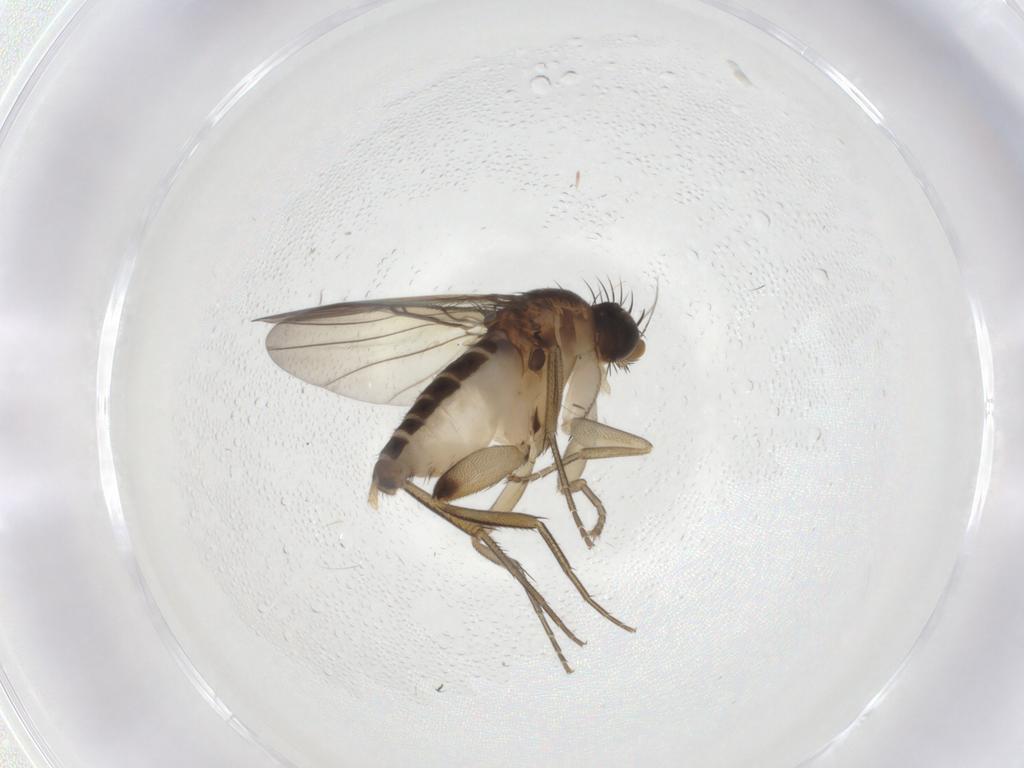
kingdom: Animalia
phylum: Arthropoda
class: Insecta
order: Diptera
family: Phoridae
